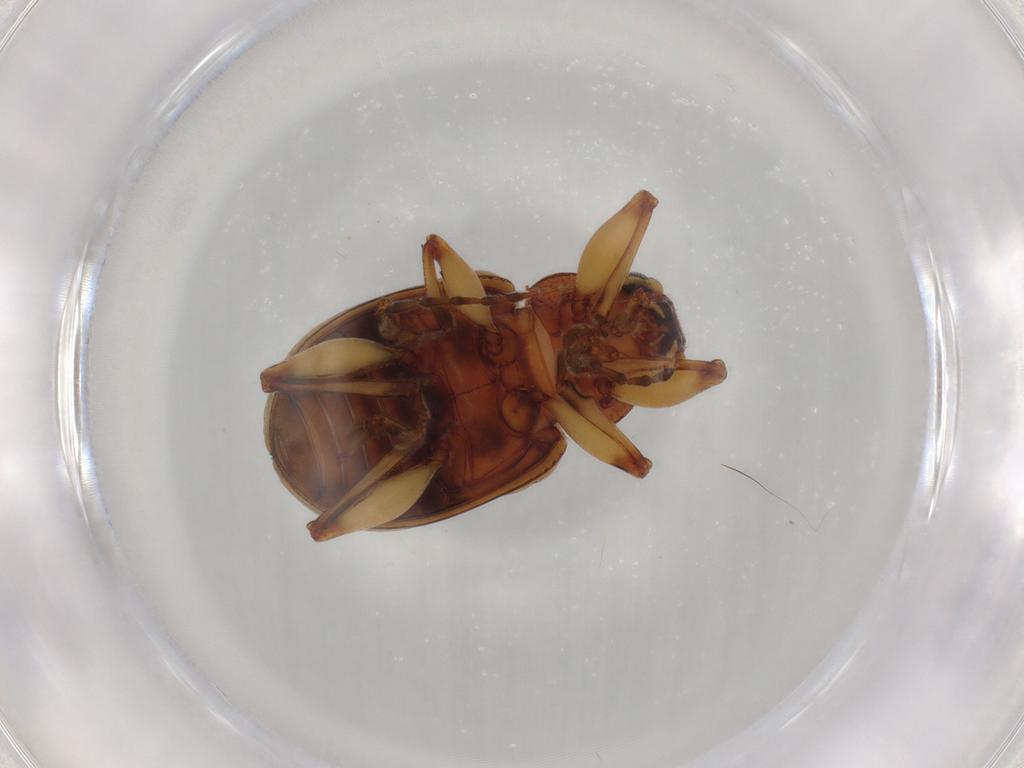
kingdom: Animalia
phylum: Arthropoda
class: Insecta
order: Coleoptera
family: Chrysomelidae
